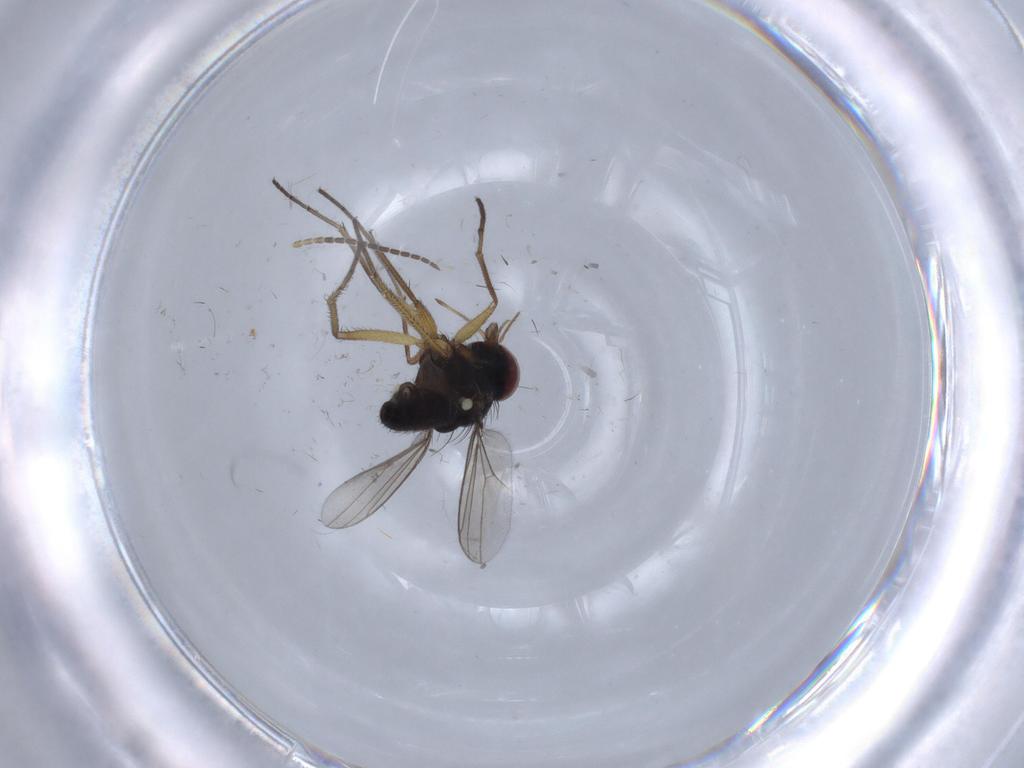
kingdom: Animalia
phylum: Arthropoda
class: Insecta
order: Diptera
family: Dolichopodidae
